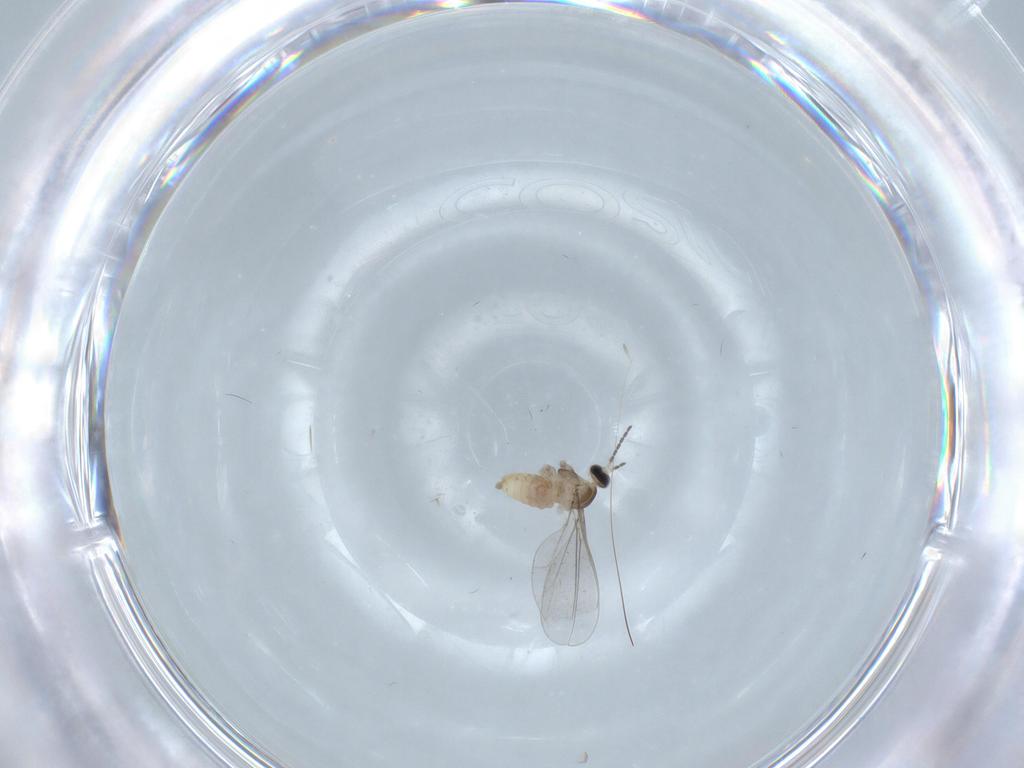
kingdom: Animalia
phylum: Arthropoda
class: Insecta
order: Diptera
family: Cecidomyiidae
